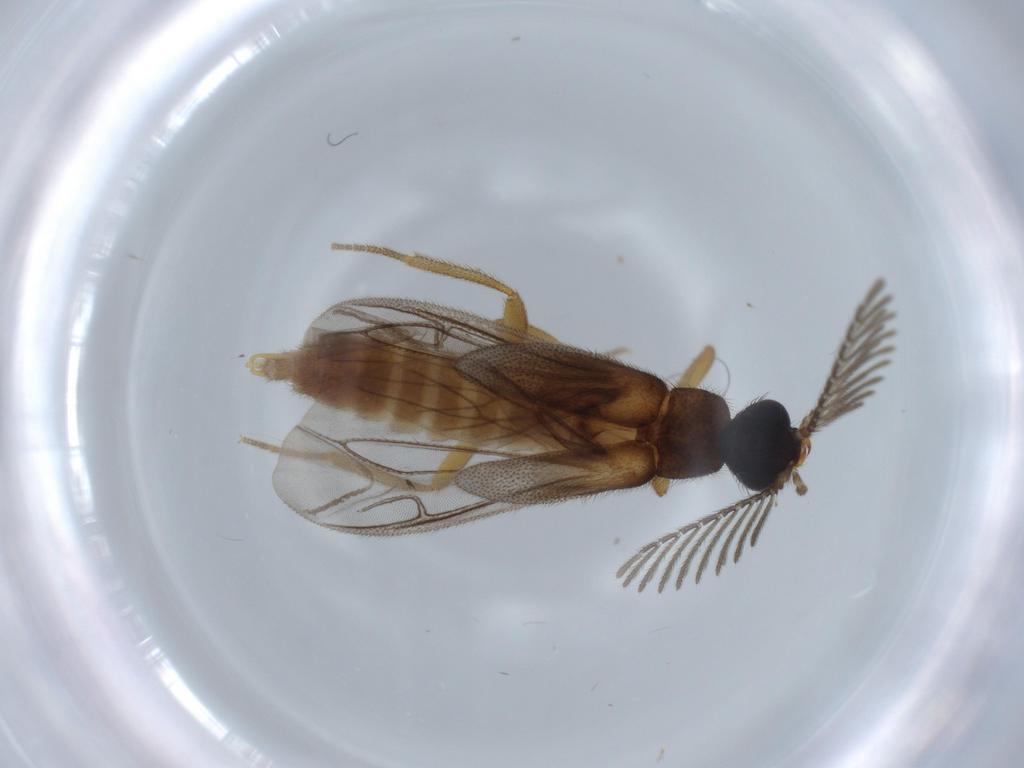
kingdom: Animalia
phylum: Arthropoda
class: Insecta
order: Coleoptera
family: Chrysomelidae
